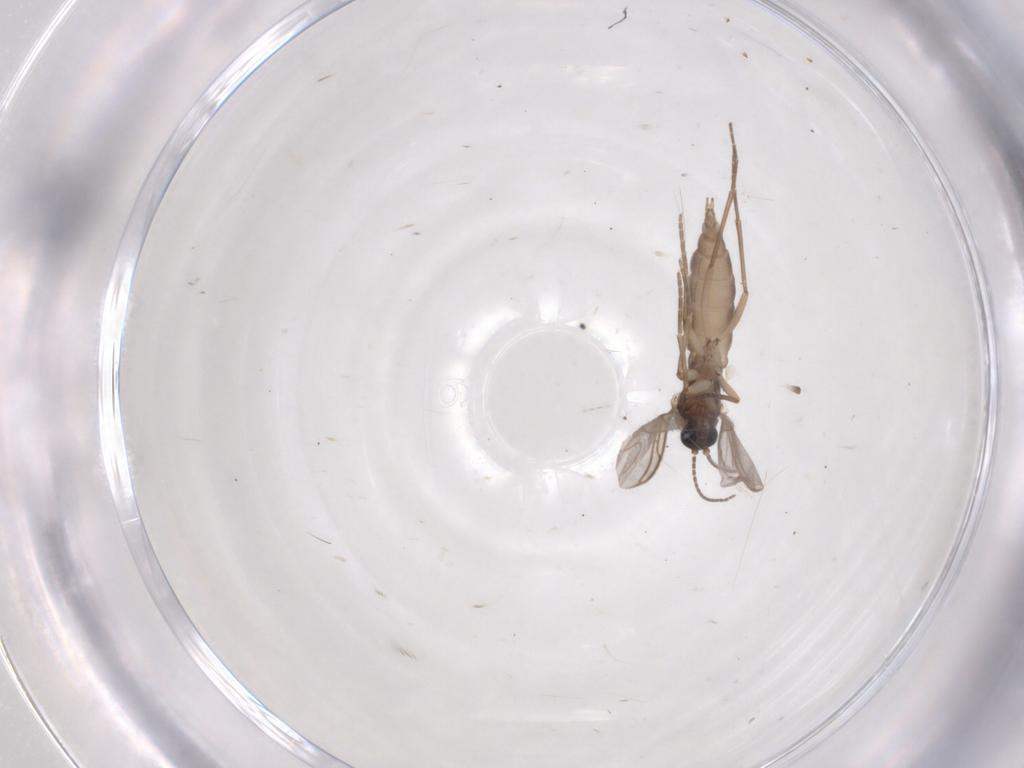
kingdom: Animalia
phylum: Arthropoda
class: Insecta
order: Diptera
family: Sciaridae
